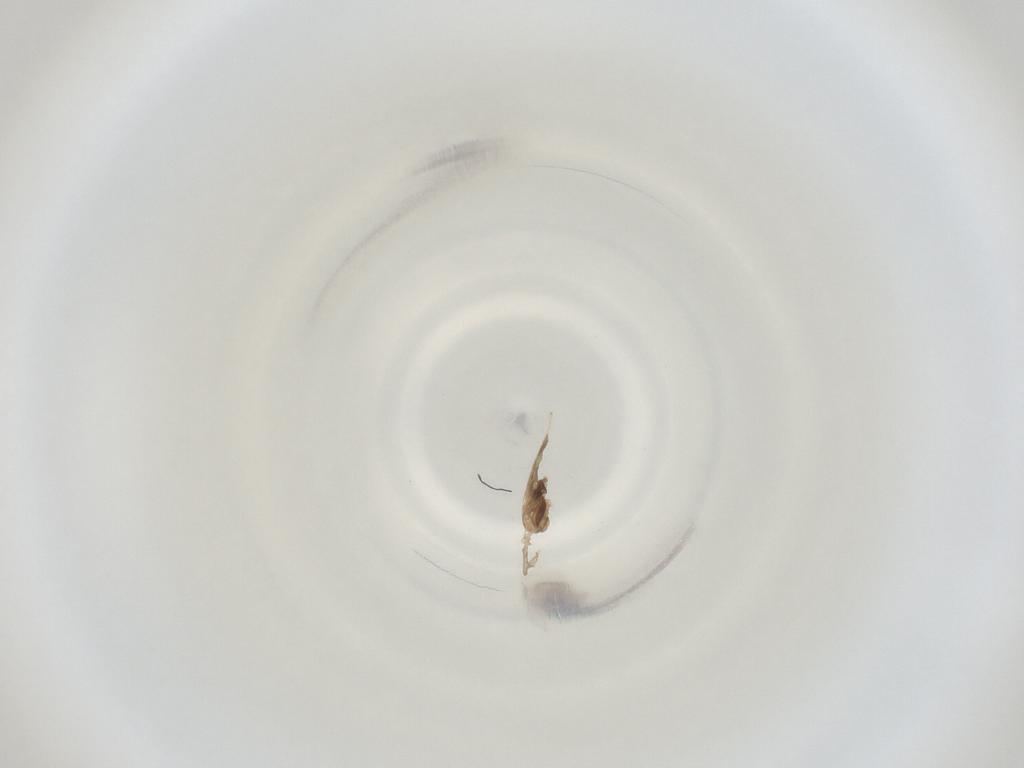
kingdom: Animalia
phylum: Arthropoda
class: Insecta
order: Diptera
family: Cecidomyiidae
